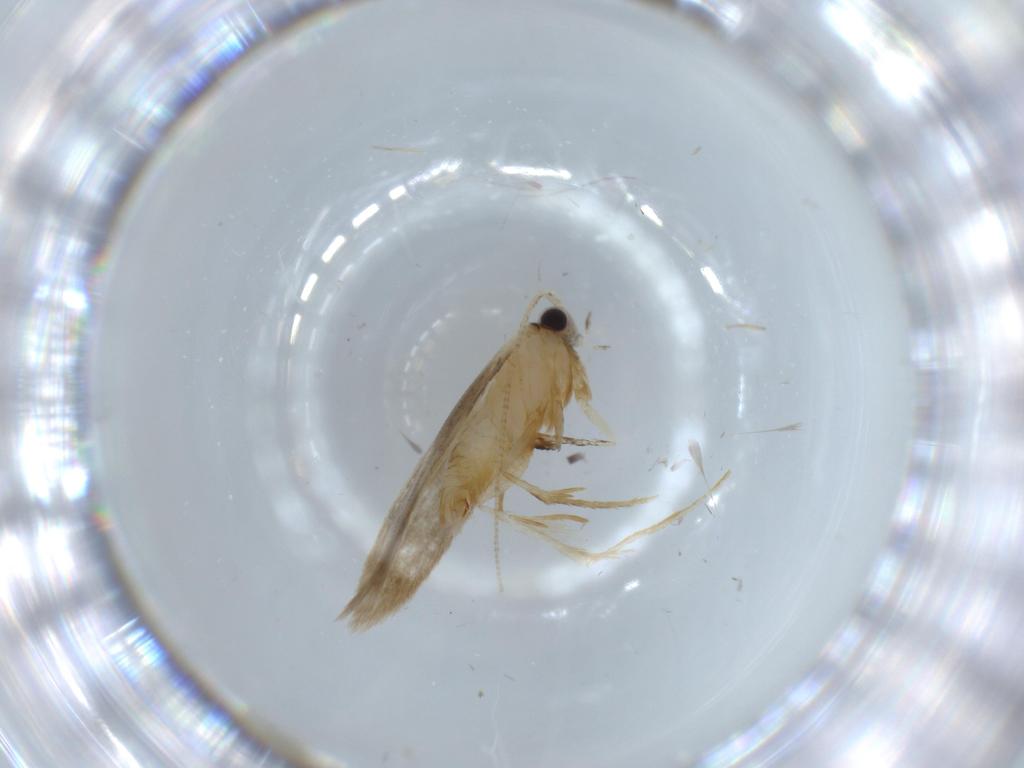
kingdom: Animalia
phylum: Arthropoda
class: Insecta
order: Lepidoptera
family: Tineidae
